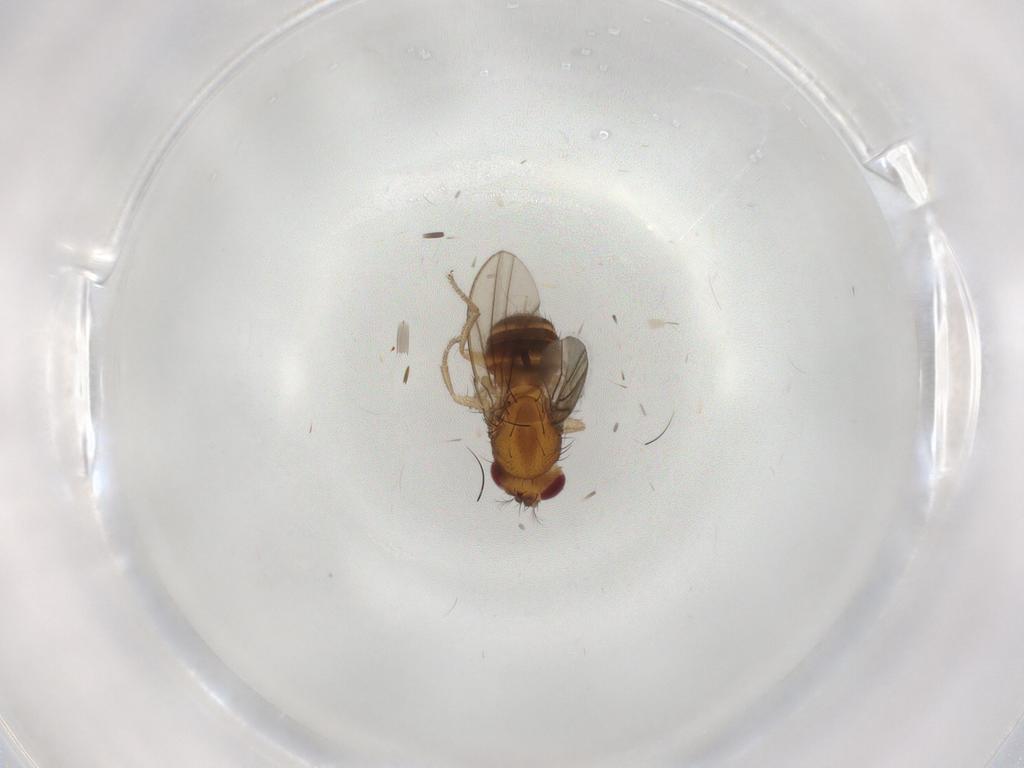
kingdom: Animalia
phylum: Arthropoda
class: Insecta
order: Diptera
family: Drosophilidae
